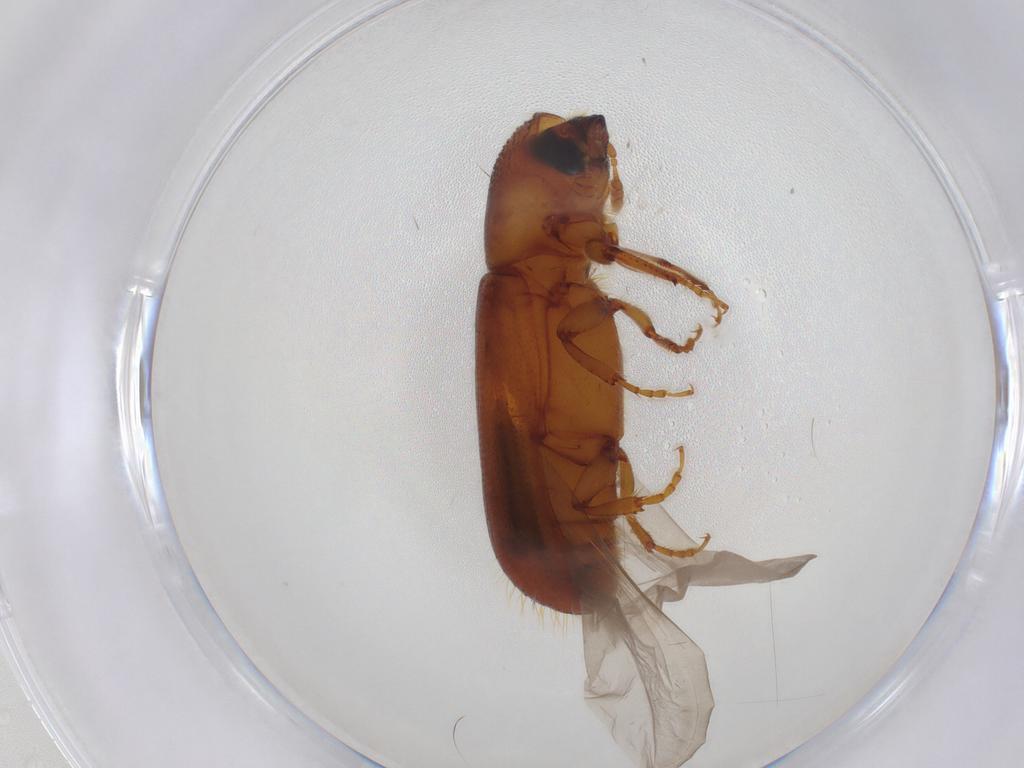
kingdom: Animalia
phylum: Arthropoda
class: Insecta
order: Coleoptera
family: Curculionidae
